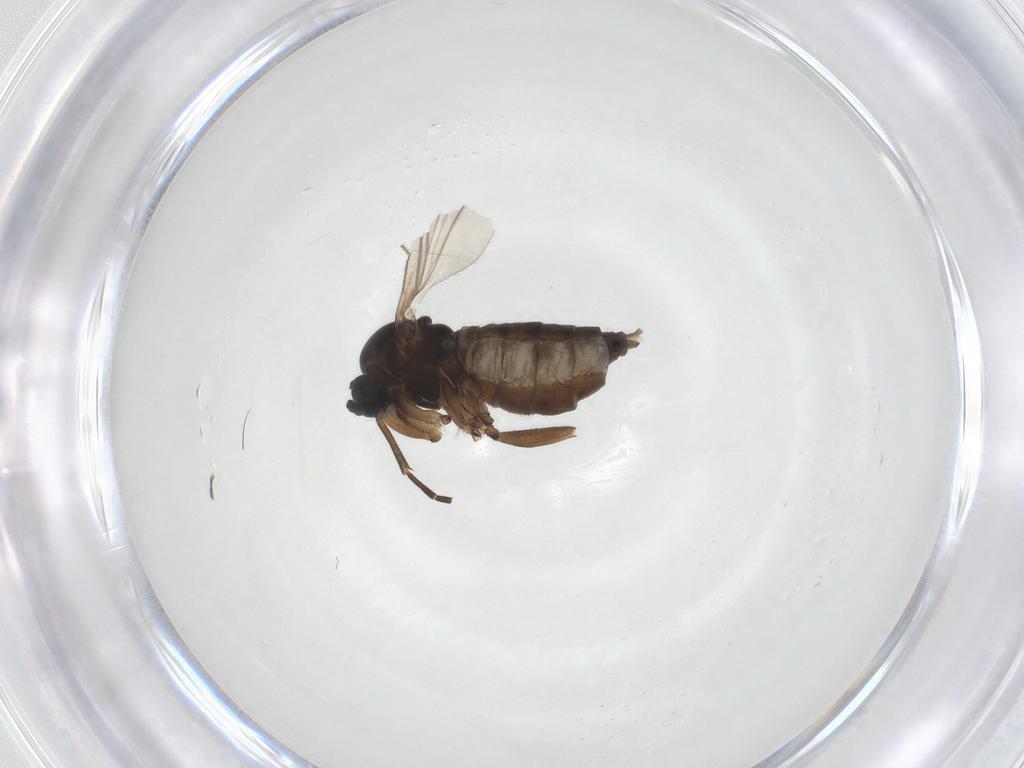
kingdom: Animalia
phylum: Arthropoda
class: Insecta
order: Diptera
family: Sciaridae
